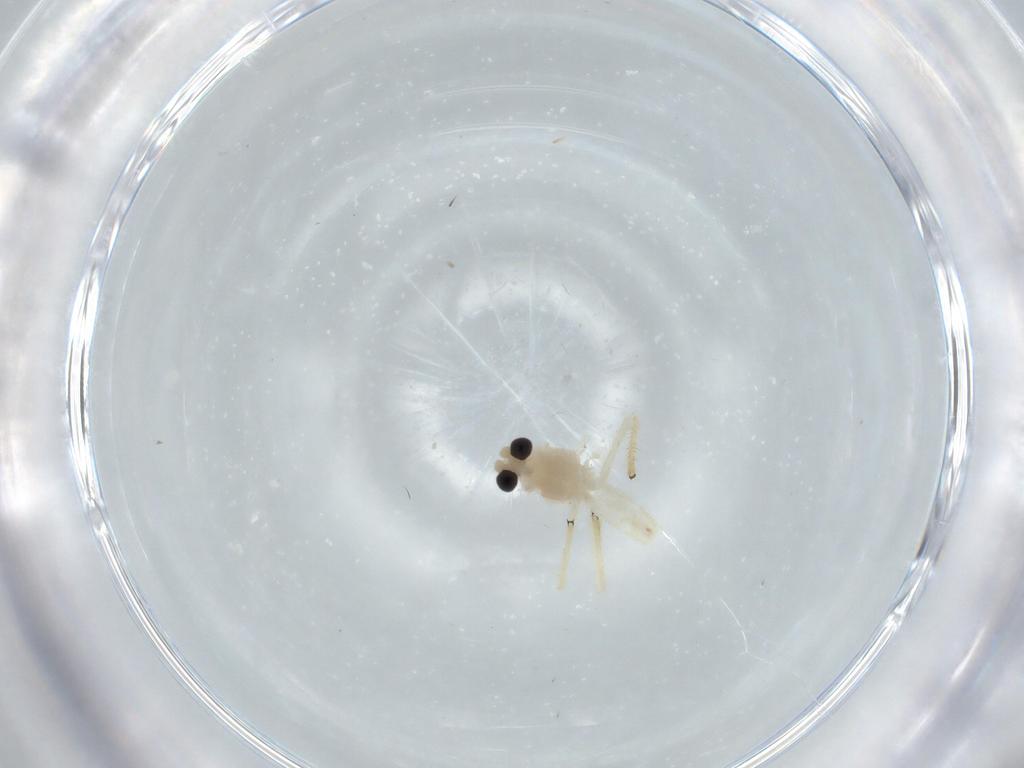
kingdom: Animalia
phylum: Arthropoda
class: Insecta
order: Diptera
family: Chironomidae
